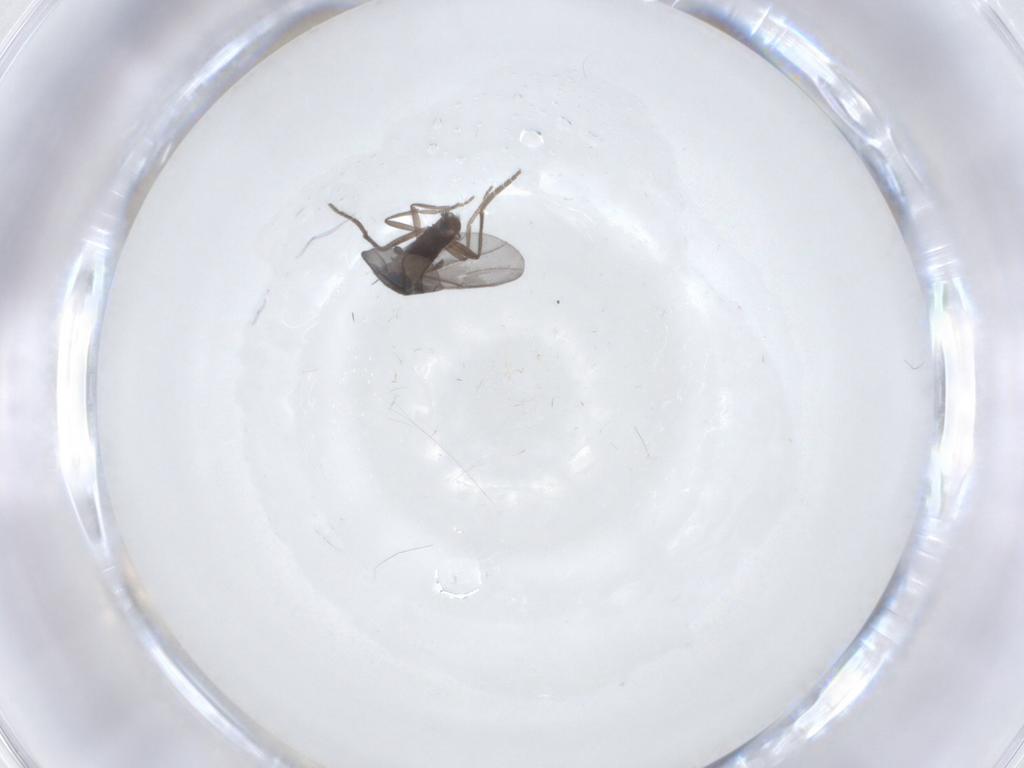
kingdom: Animalia
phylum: Arthropoda
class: Insecta
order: Diptera
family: Phoridae
